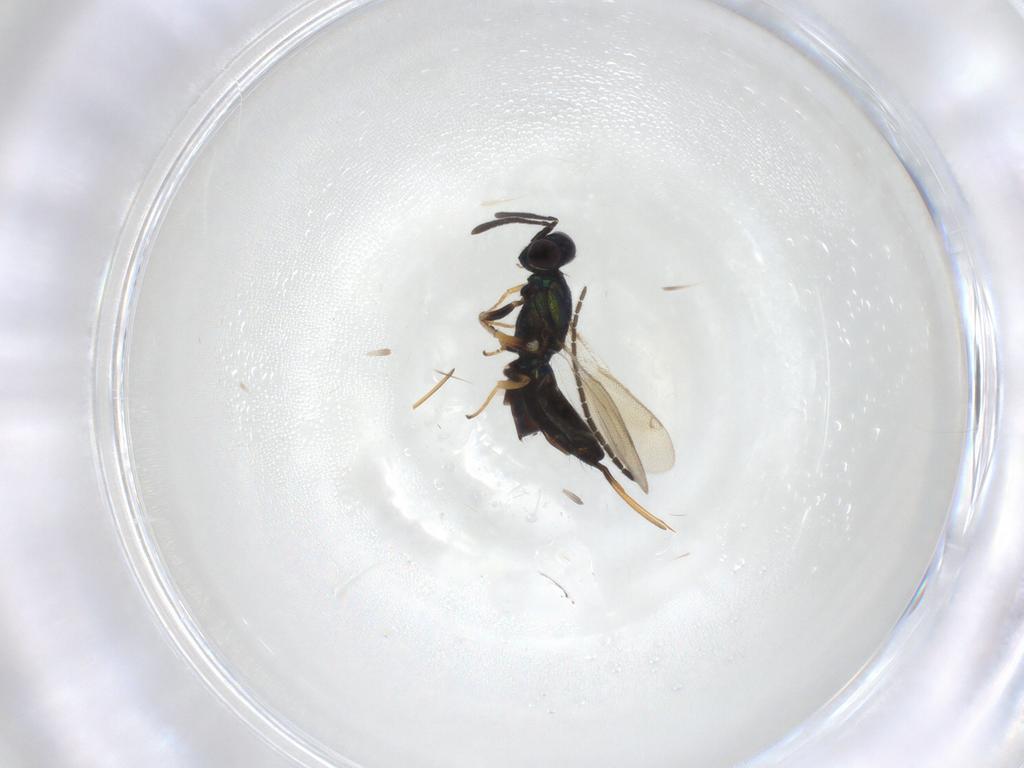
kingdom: Animalia
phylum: Arthropoda
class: Insecta
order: Hymenoptera
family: Eupelmidae
